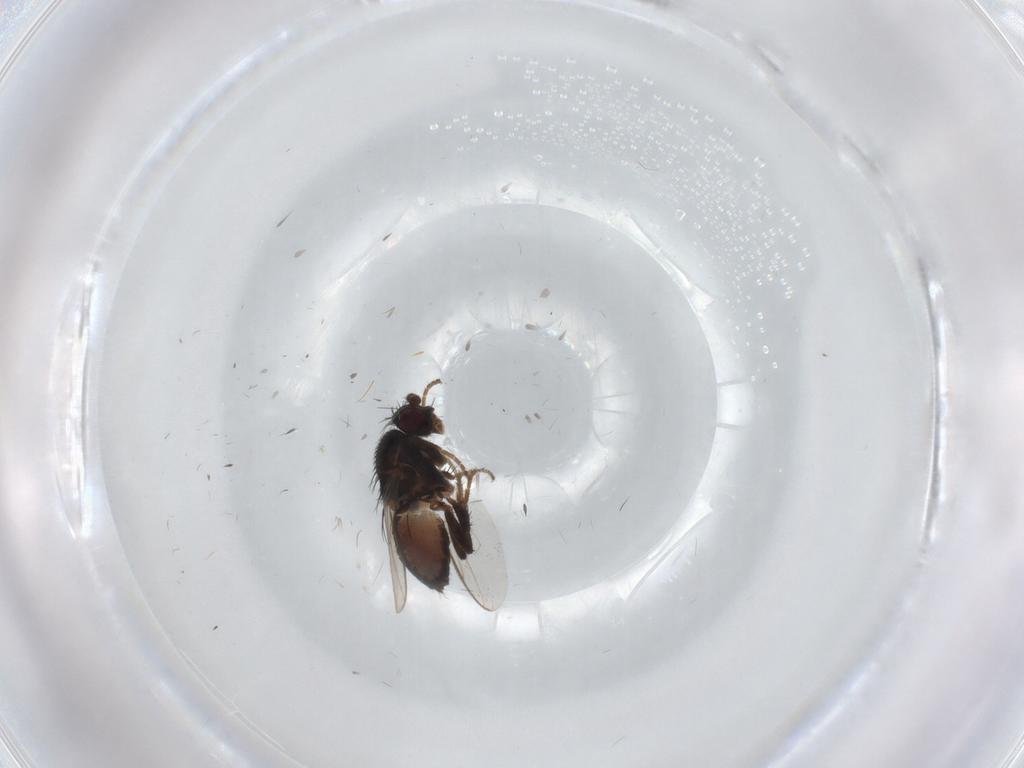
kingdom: Animalia
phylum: Arthropoda
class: Insecta
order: Diptera
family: Sphaeroceridae
